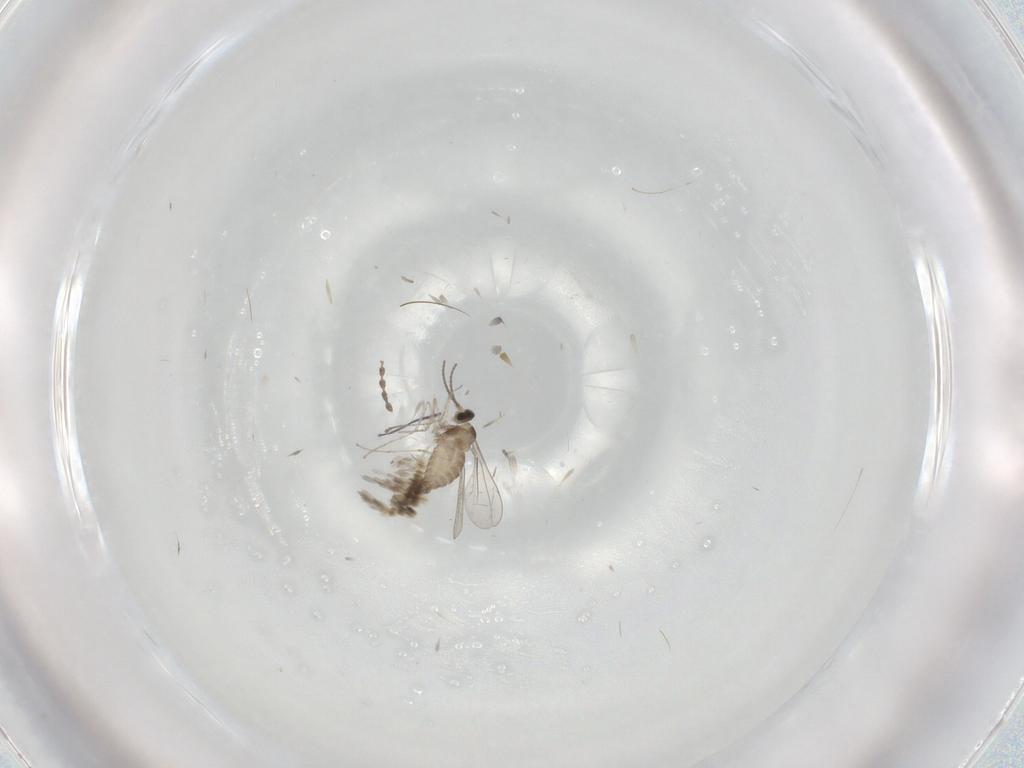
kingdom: Animalia
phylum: Arthropoda
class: Insecta
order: Diptera
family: Cecidomyiidae
